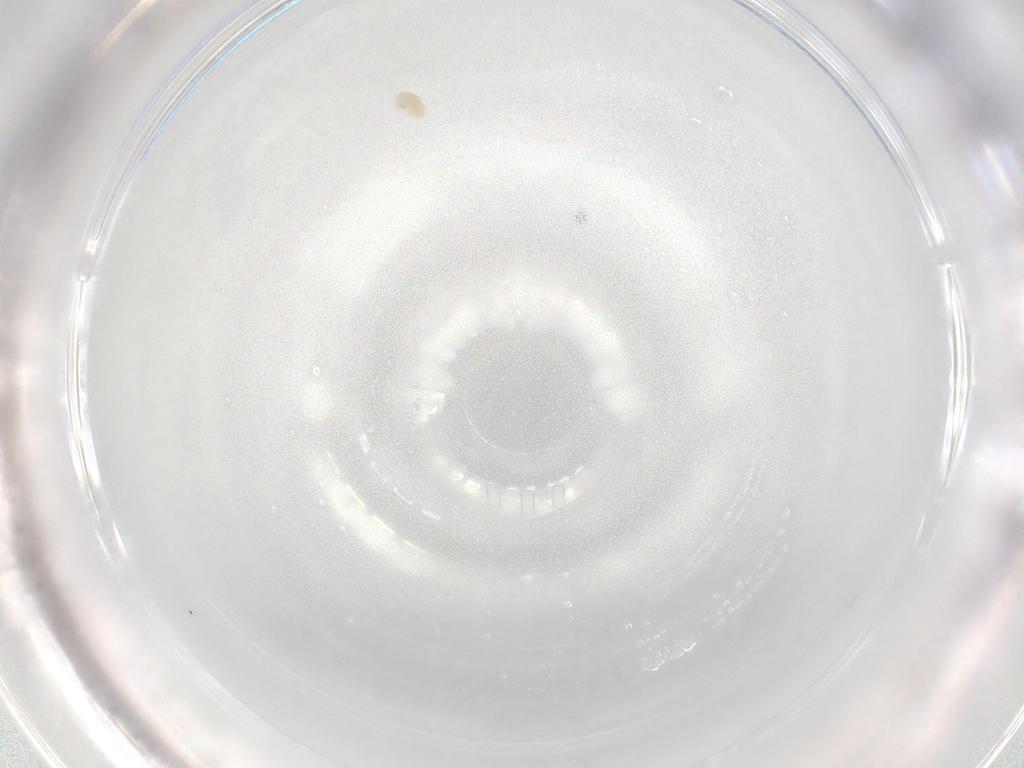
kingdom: Animalia
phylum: Arthropoda
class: Arachnida
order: Trombidiformes
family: Eupodidae
